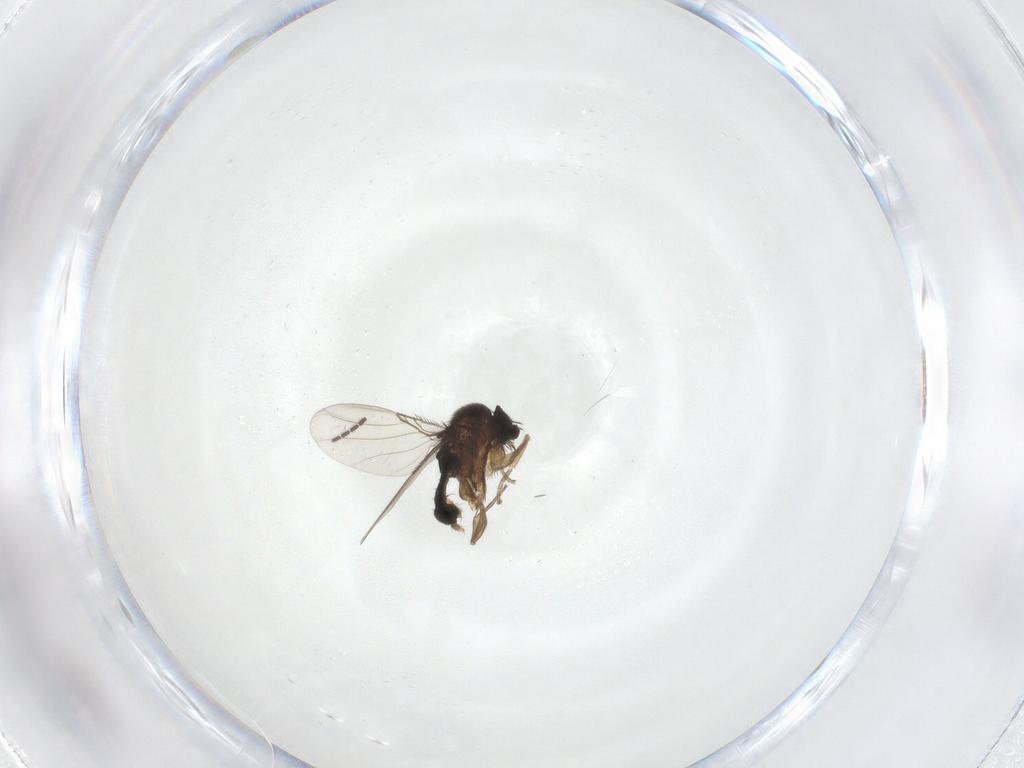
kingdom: Animalia
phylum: Arthropoda
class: Insecta
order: Diptera
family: Phoridae
